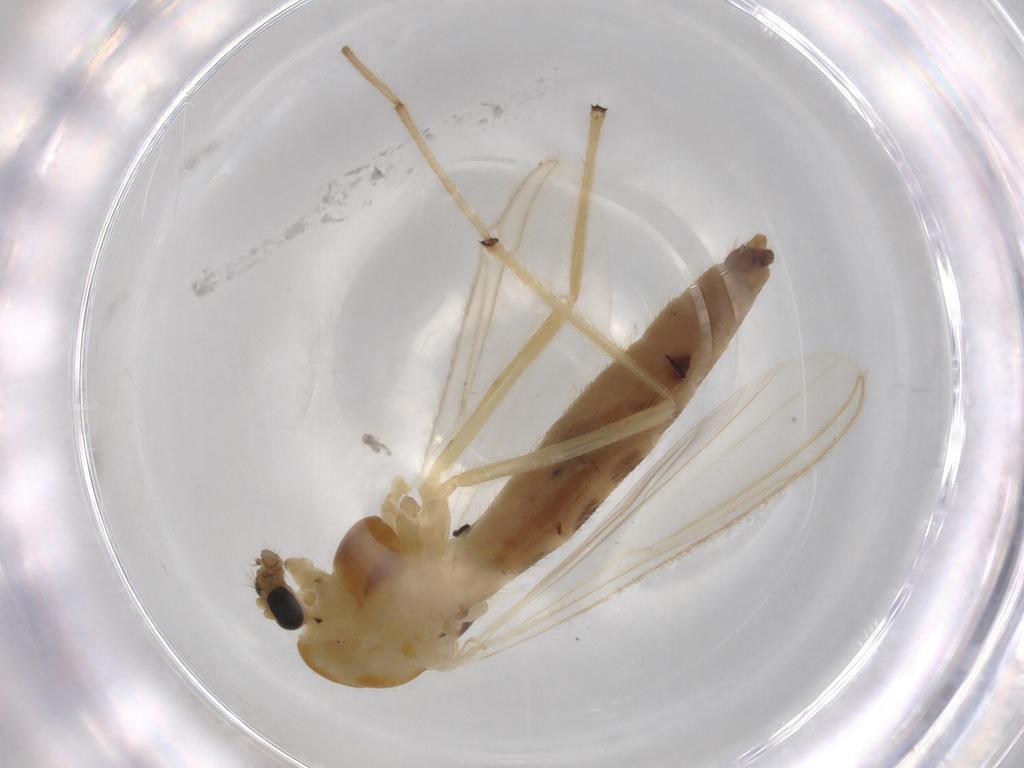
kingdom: Animalia
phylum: Arthropoda
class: Insecta
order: Diptera
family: Chironomidae
